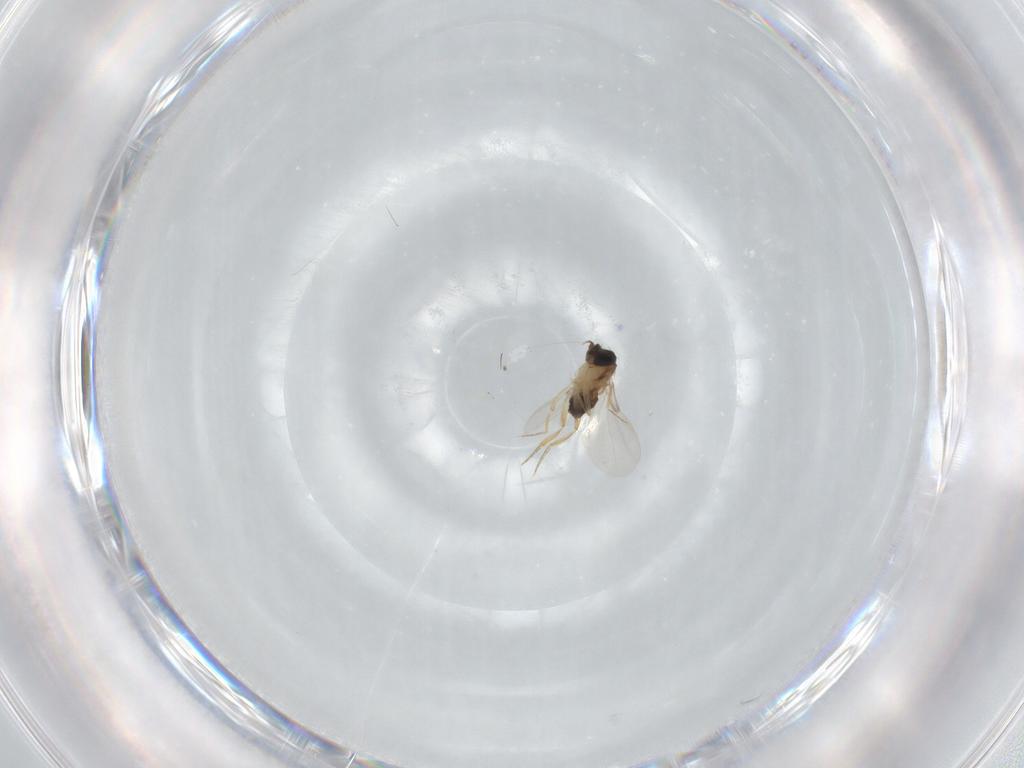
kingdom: Animalia
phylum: Arthropoda
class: Insecta
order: Diptera
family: Phoridae
